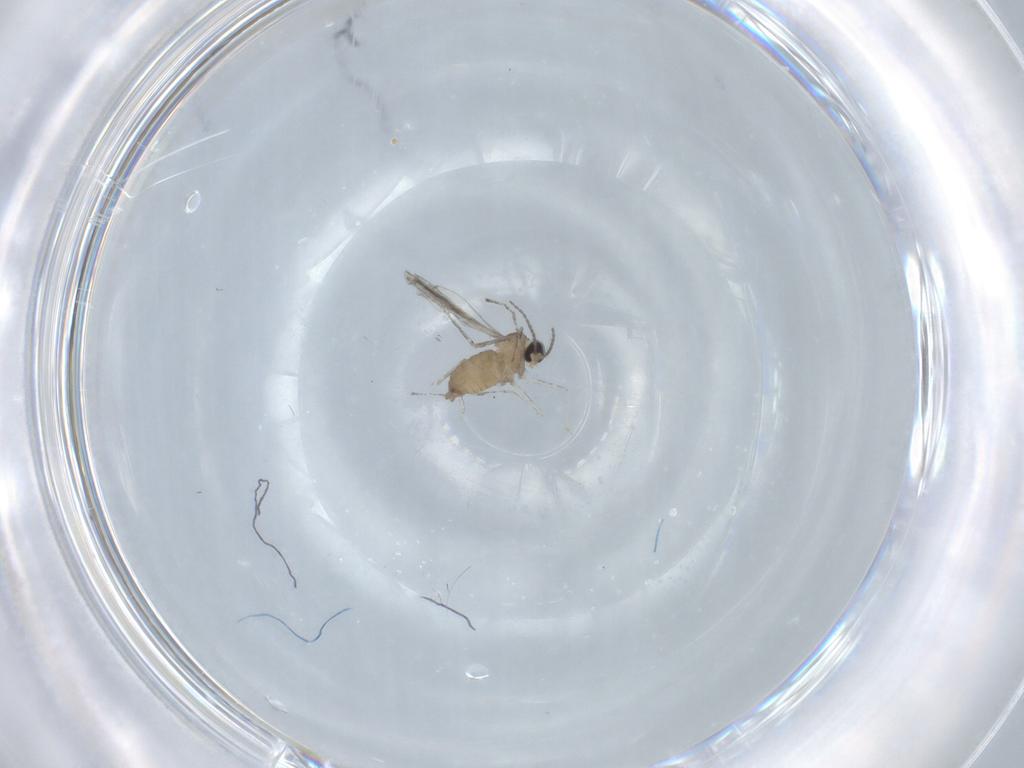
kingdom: Animalia
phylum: Arthropoda
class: Insecta
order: Diptera
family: Cecidomyiidae
